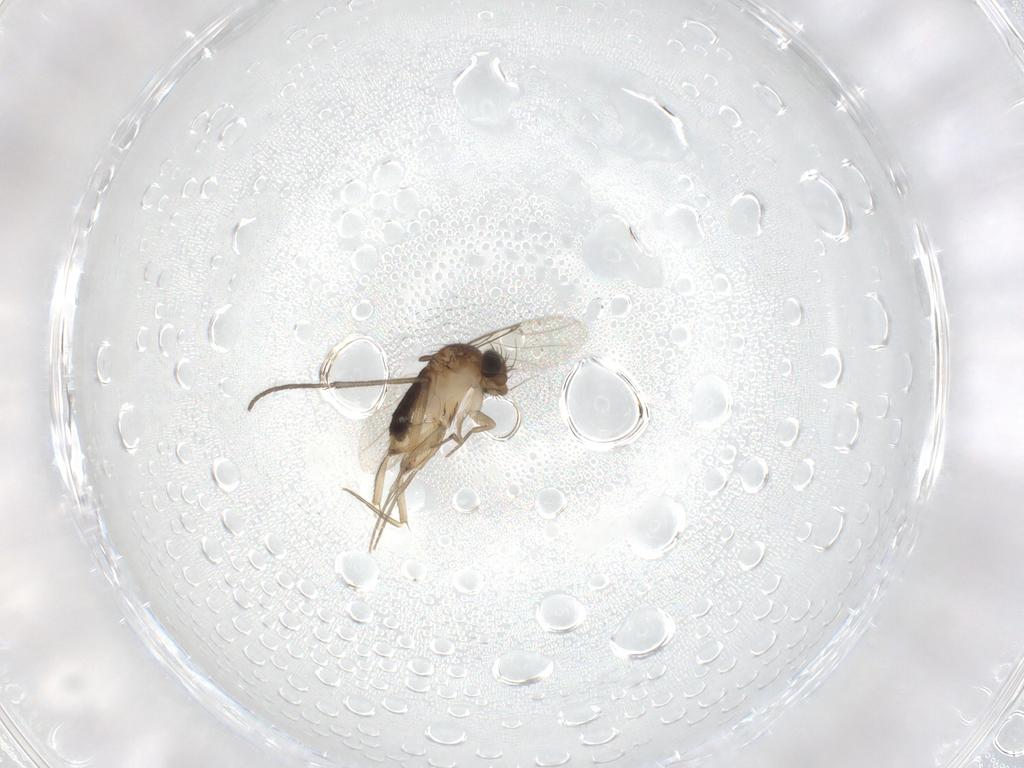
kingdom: Animalia
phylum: Arthropoda
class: Insecta
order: Diptera
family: Phoridae
